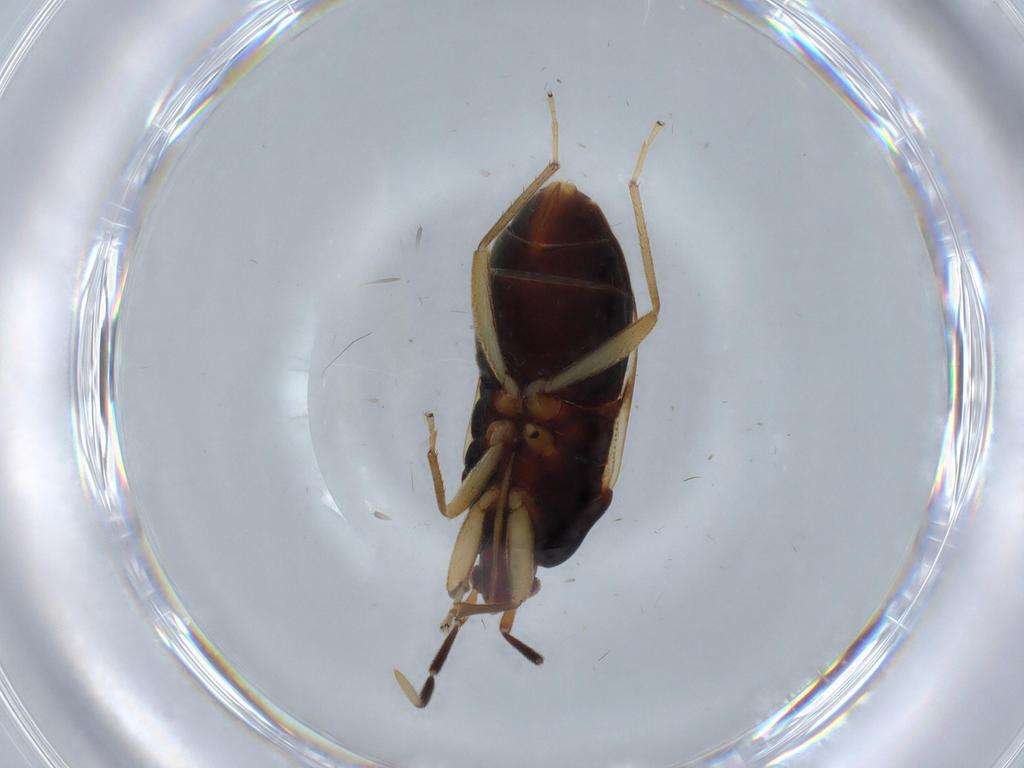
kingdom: Animalia
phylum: Arthropoda
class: Insecta
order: Hemiptera
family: Rhyparochromidae
